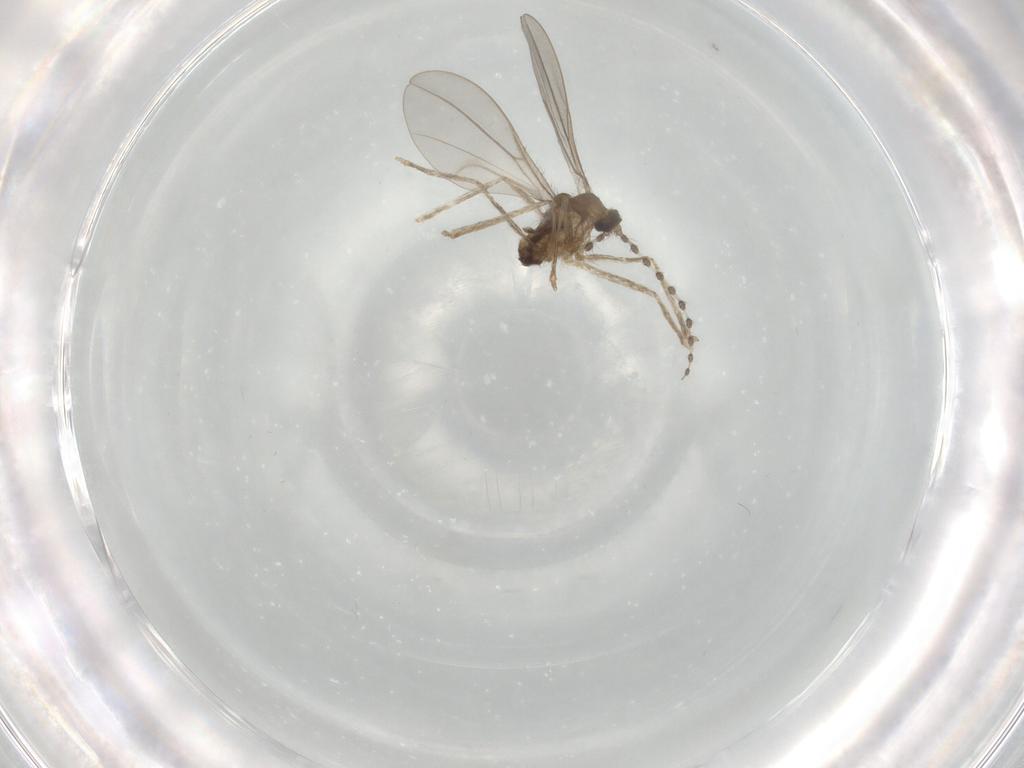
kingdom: Animalia
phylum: Arthropoda
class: Insecta
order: Diptera
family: Cecidomyiidae
